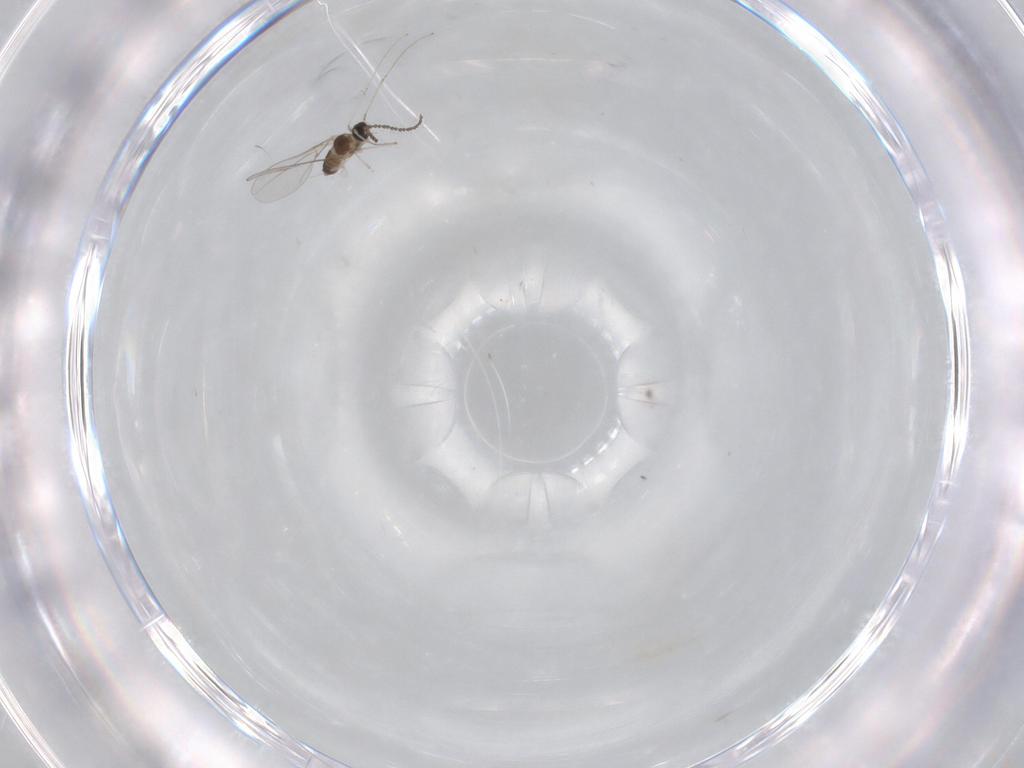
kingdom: Animalia
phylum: Arthropoda
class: Insecta
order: Diptera
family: Cecidomyiidae
